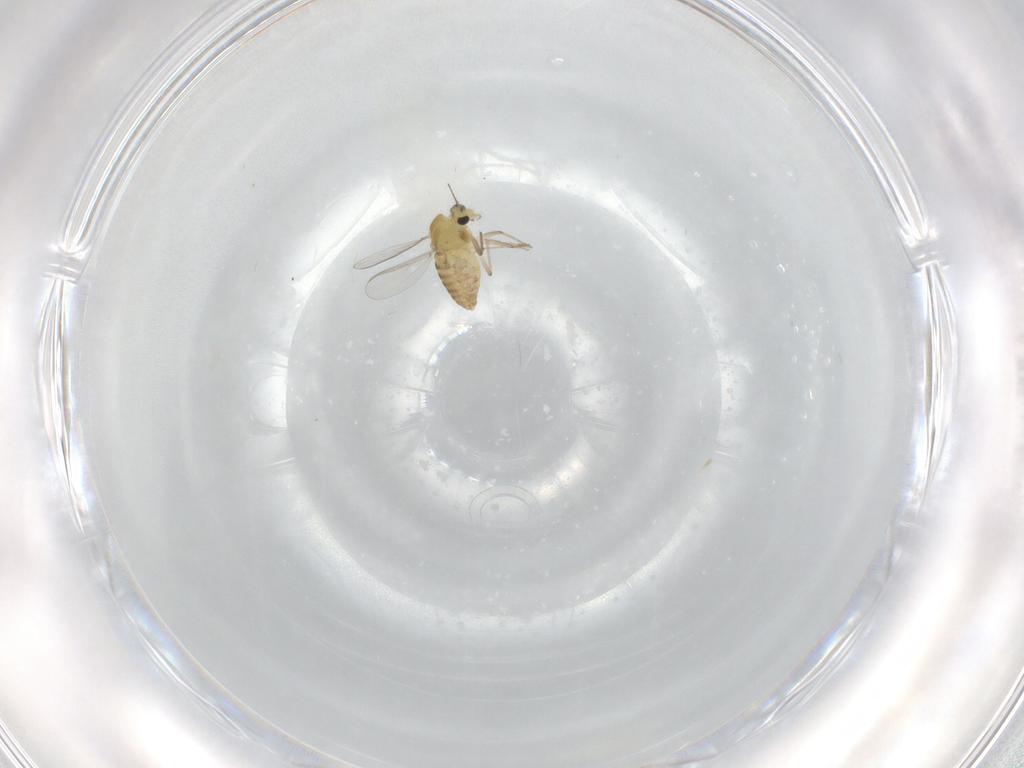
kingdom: Animalia
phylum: Arthropoda
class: Insecta
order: Diptera
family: Chironomidae
